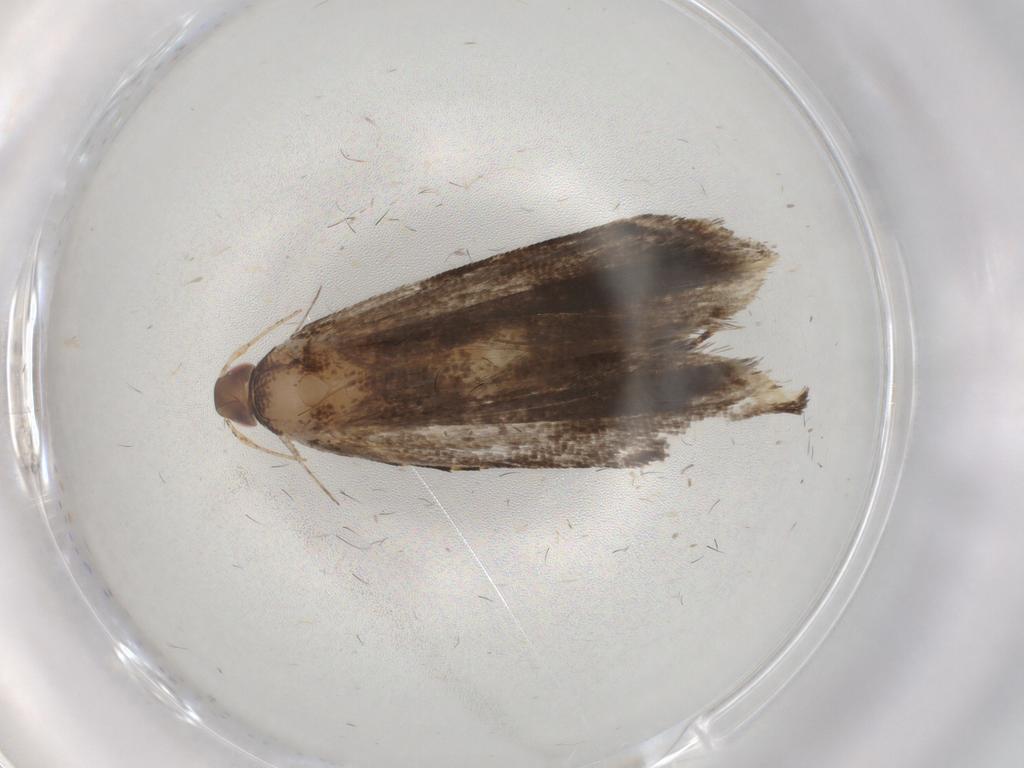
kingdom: Animalia
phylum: Arthropoda
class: Insecta
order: Lepidoptera
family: Gelechiidae
